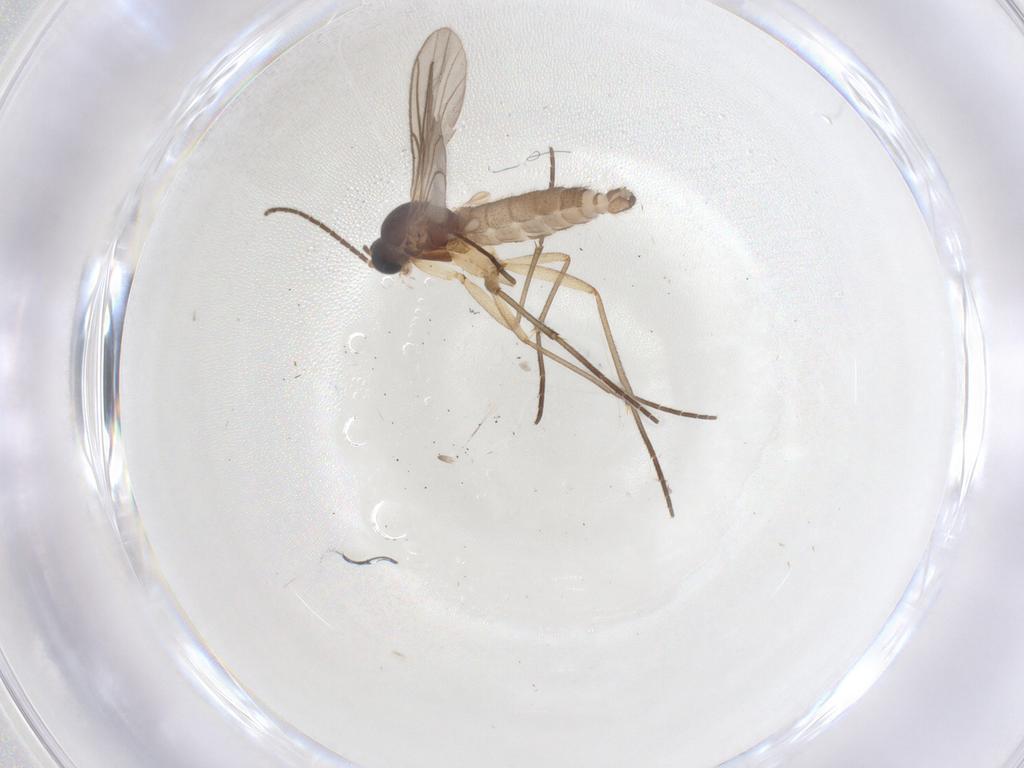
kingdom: Animalia
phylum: Arthropoda
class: Insecta
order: Diptera
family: Sciaridae
